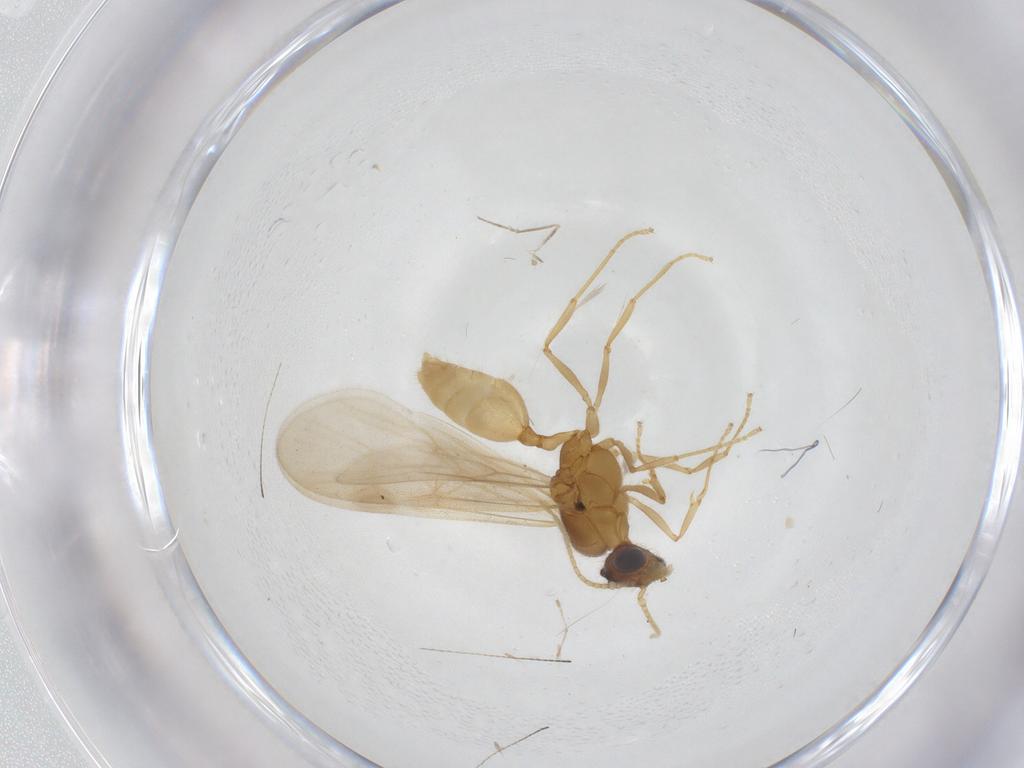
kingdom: Animalia
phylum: Arthropoda
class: Insecta
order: Hymenoptera
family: Formicidae
